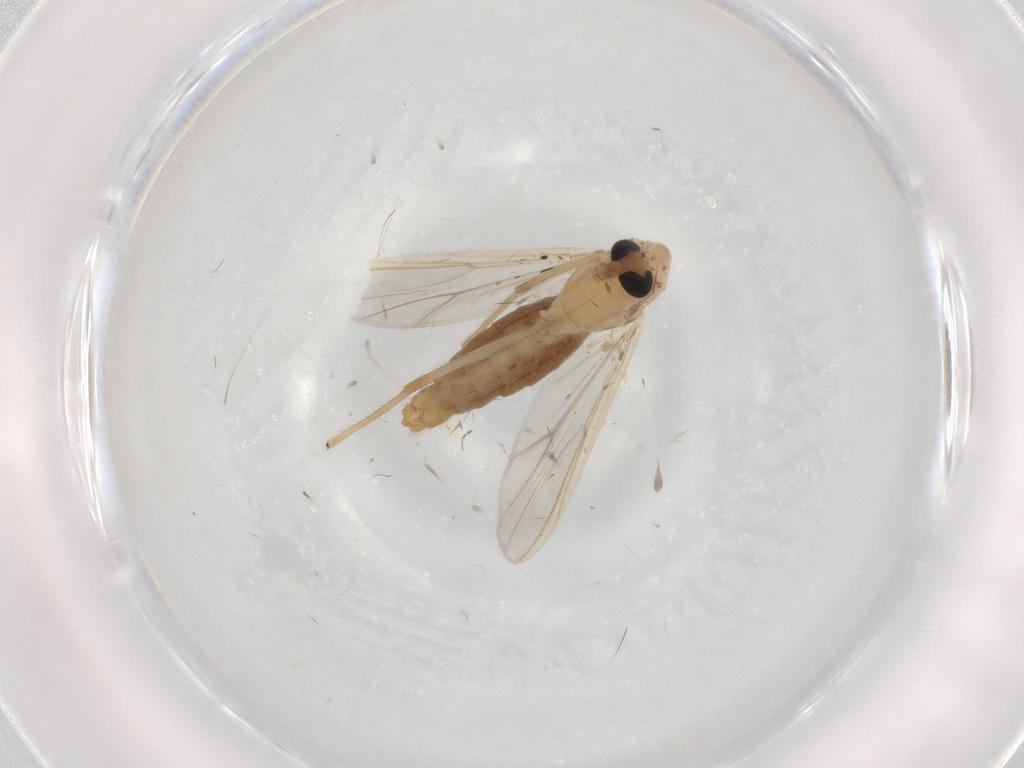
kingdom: Animalia
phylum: Arthropoda
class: Insecta
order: Diptera
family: Chironomidae
